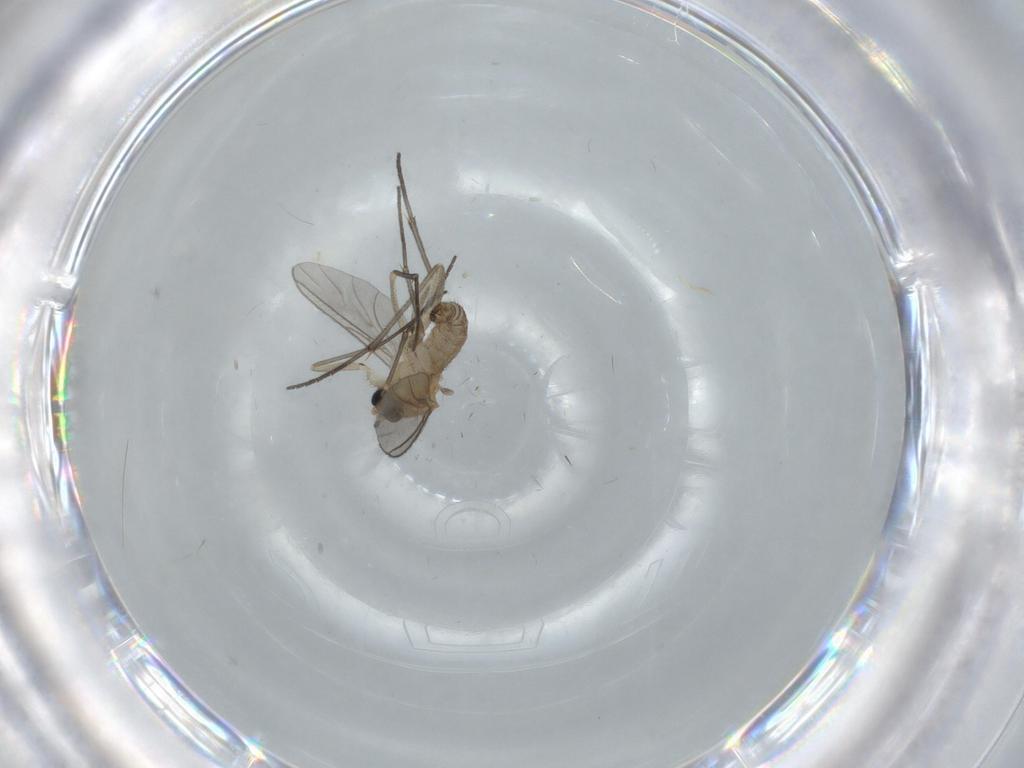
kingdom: Animalia
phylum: Arthropoda
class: Insecta
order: Diptera
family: Sciaridae
